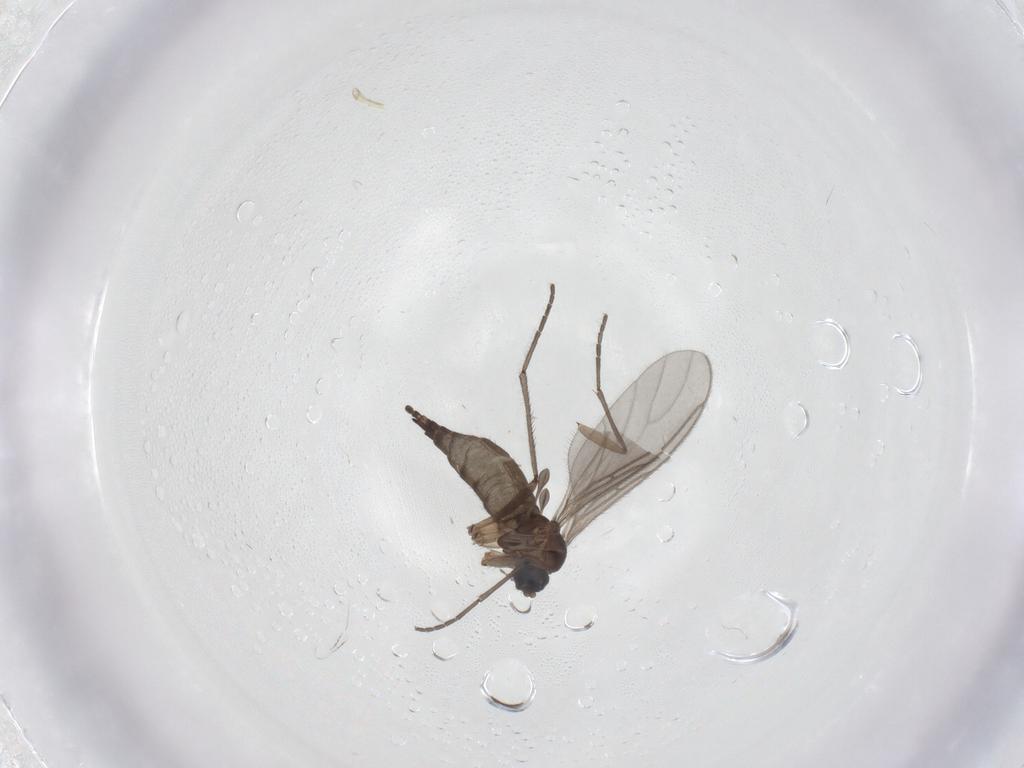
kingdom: Animalia
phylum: Arthropoda
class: Insecta
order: Diptera
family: Sciaridae
